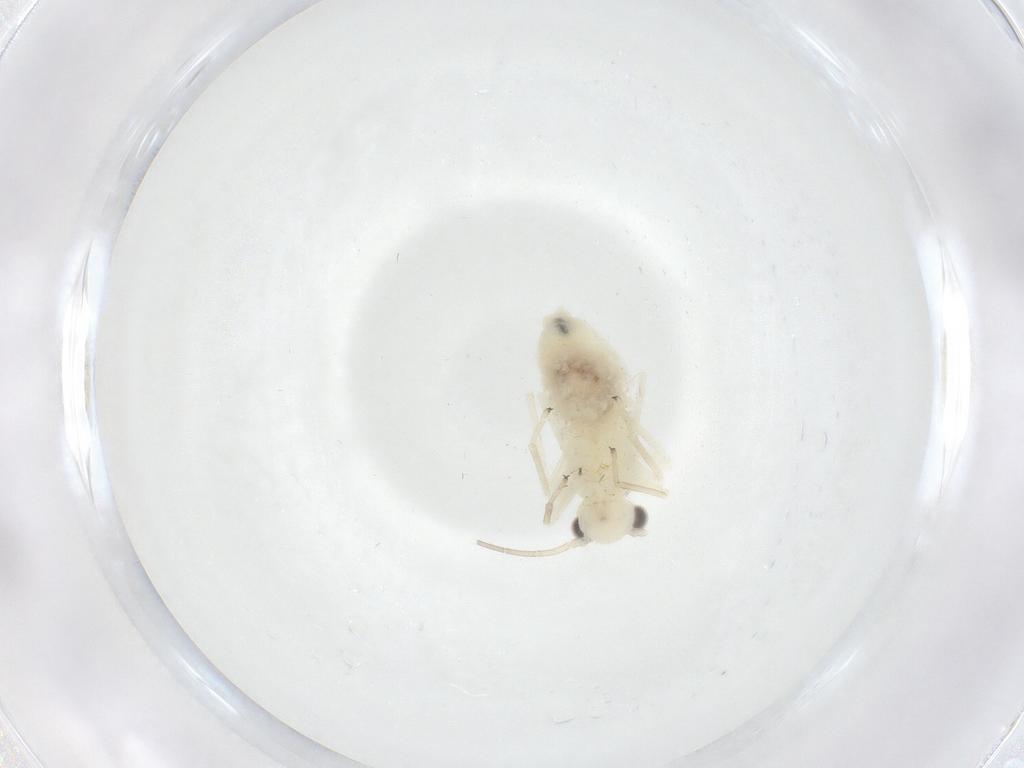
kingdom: Animalia
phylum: Arthropoda
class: Insecta
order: Psocodea
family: Caeciliusidae
